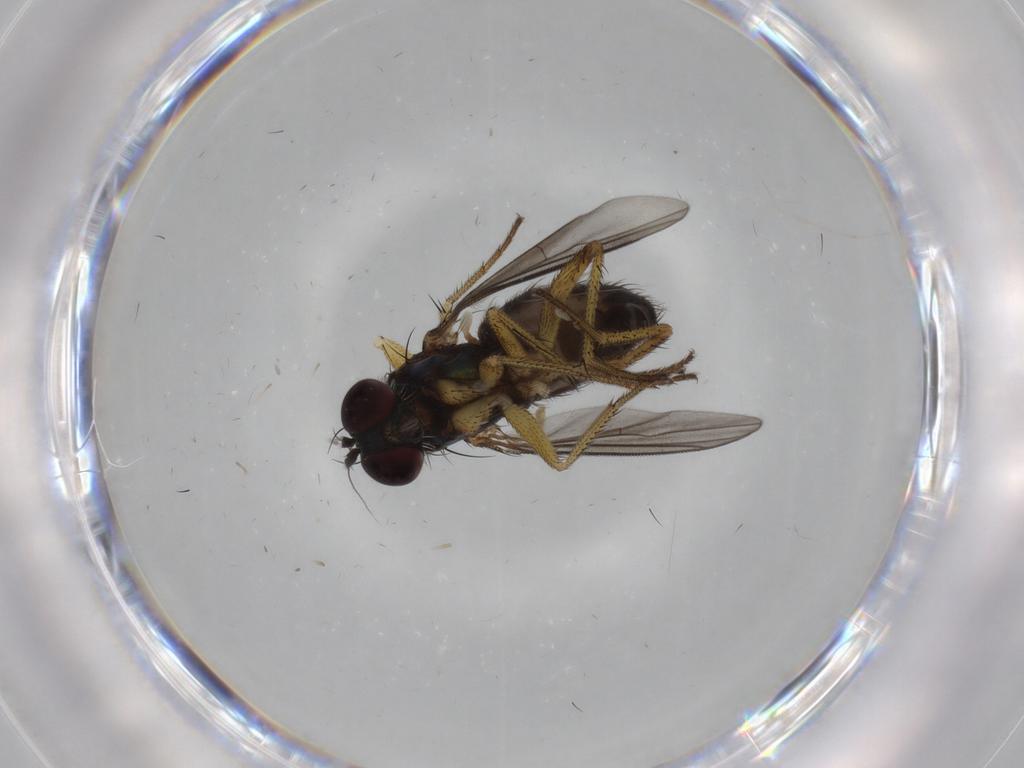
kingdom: Animalia
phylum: Arthropoda
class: Insecta
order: Diptera
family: Dolichopodidae
